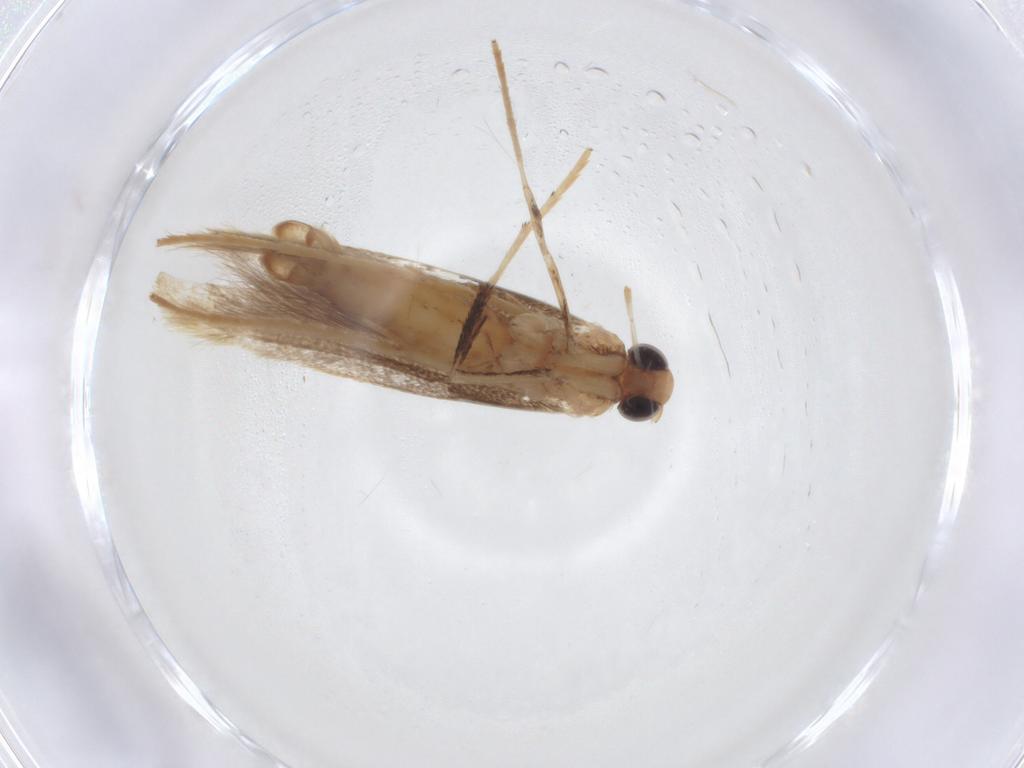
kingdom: Animalia
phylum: Arthropoda
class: Insecta
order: Lepidoptera
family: Gracillariidae
